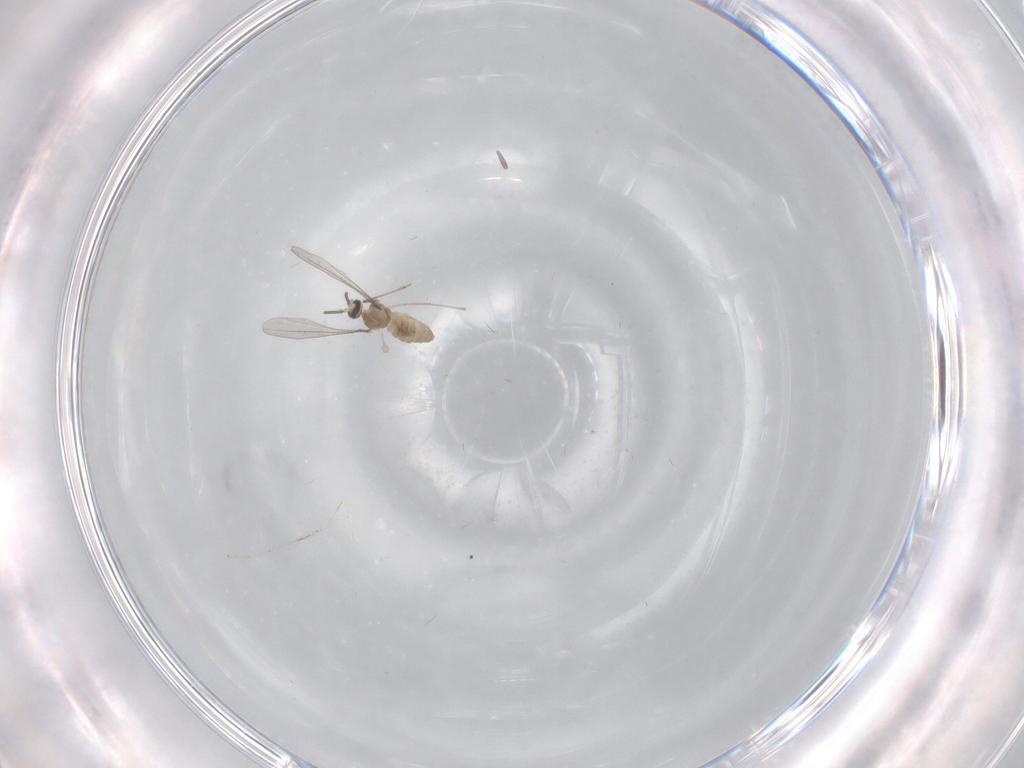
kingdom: Animalia
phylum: Arthropoda
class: Insecta
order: Diptera
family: Cecidomyiidae
